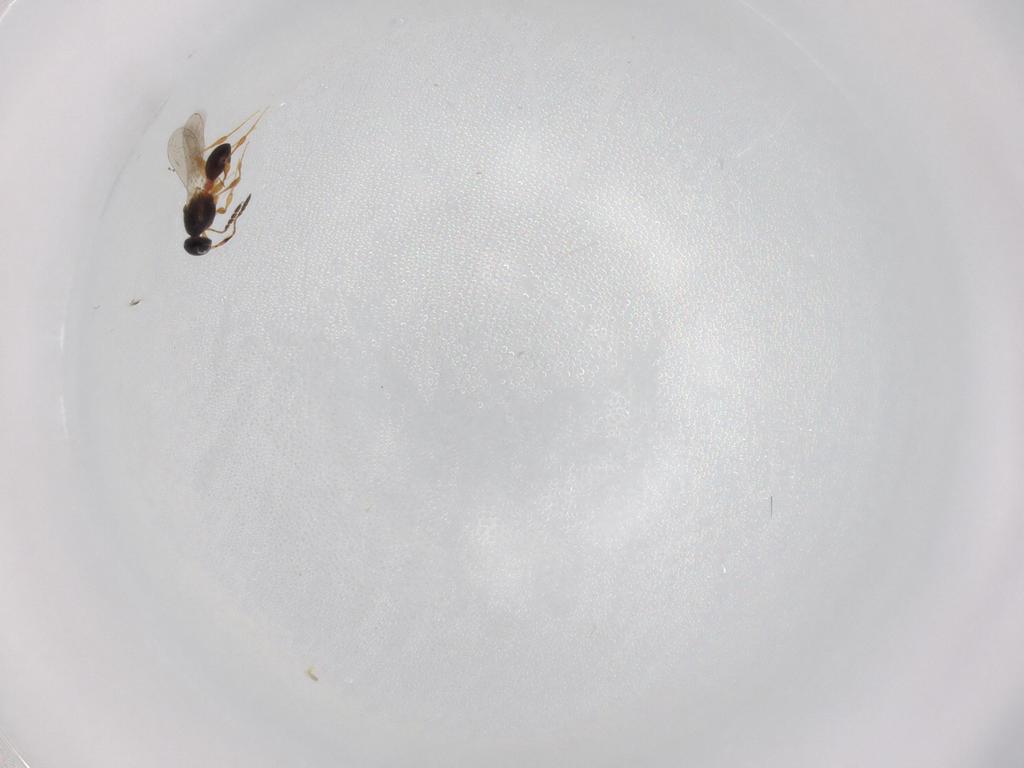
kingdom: Animalia
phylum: Arthropoda
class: Insecta
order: Hymenoptera
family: Platygastridae
